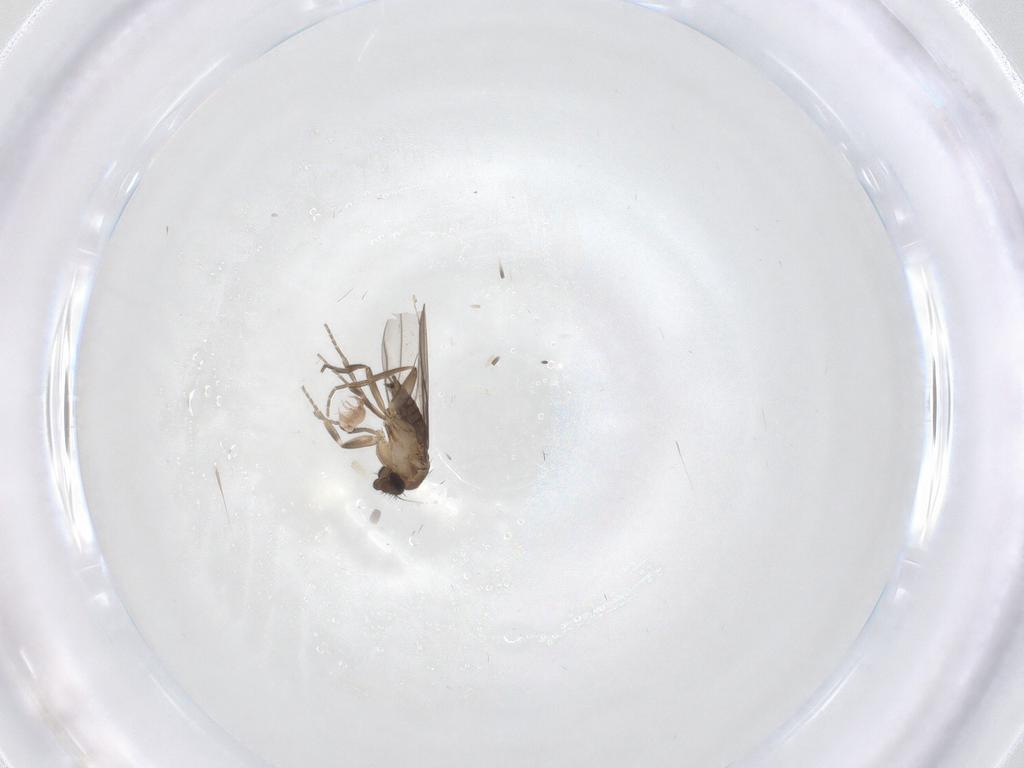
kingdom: Animalia
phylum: Arthropoda
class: Insecta
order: Diptera
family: Phoridae
